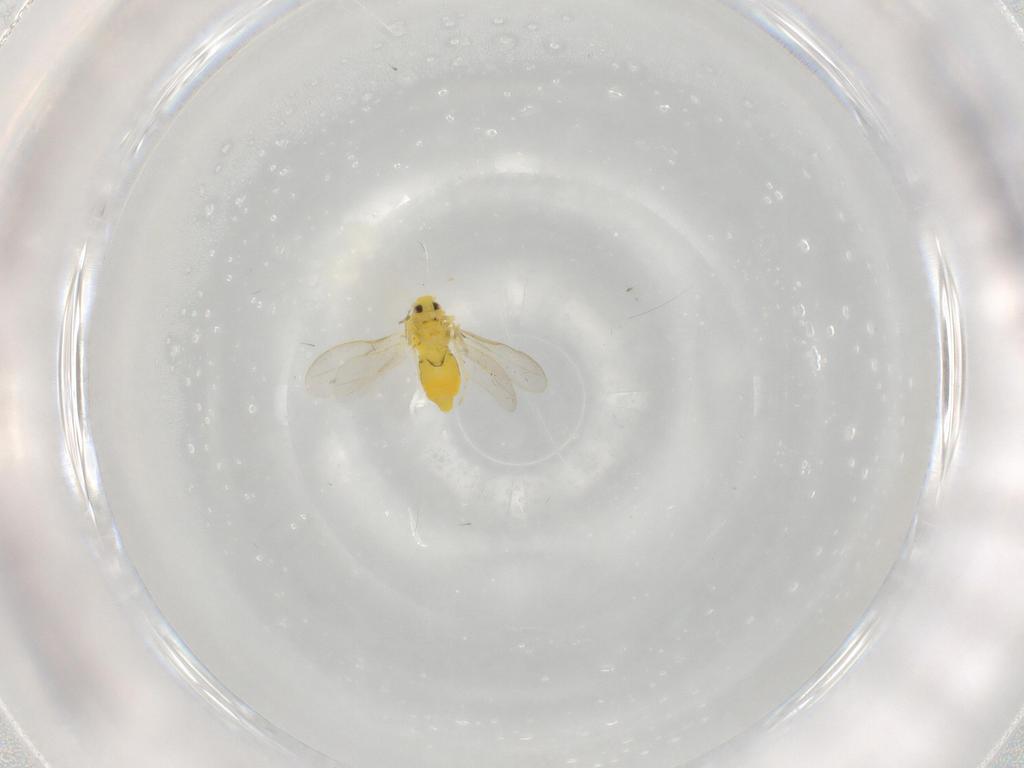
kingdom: Animalia
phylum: Arthropoda
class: Insecta
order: Hemiptera
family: Aleyrodidae
